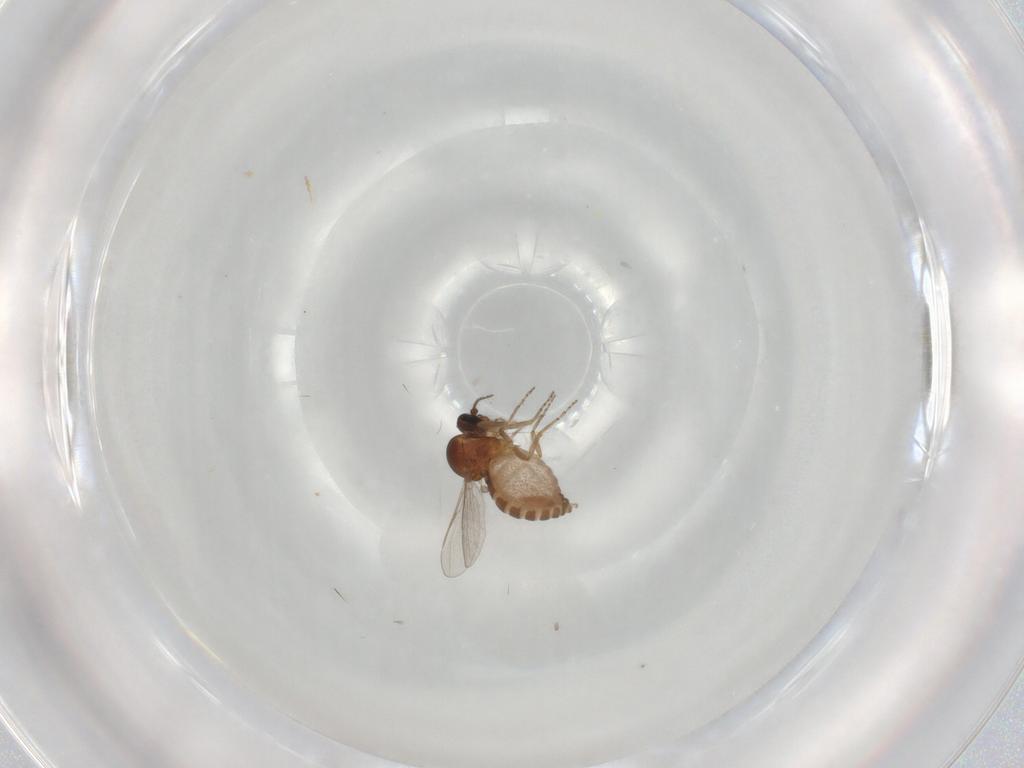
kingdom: Animalia
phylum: Arthropoda
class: Insecta
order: Diptera
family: Ceratopogonidae
